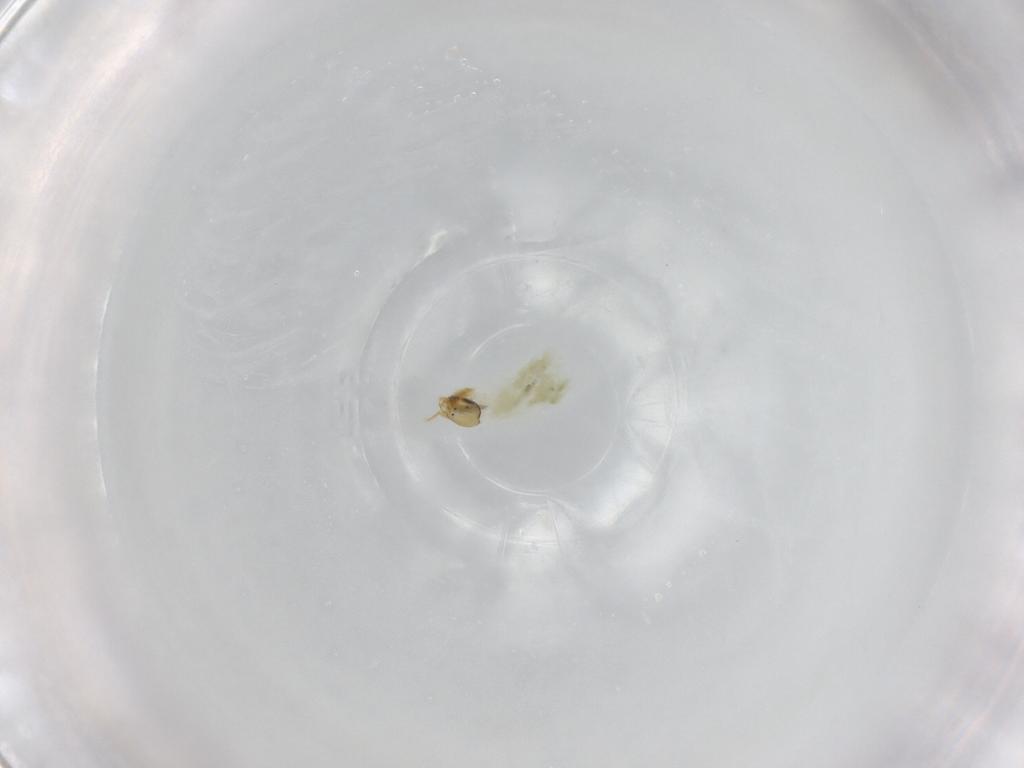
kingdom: Animalia
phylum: Arthropoda
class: Insecta
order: Diptera
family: Chironomidae
